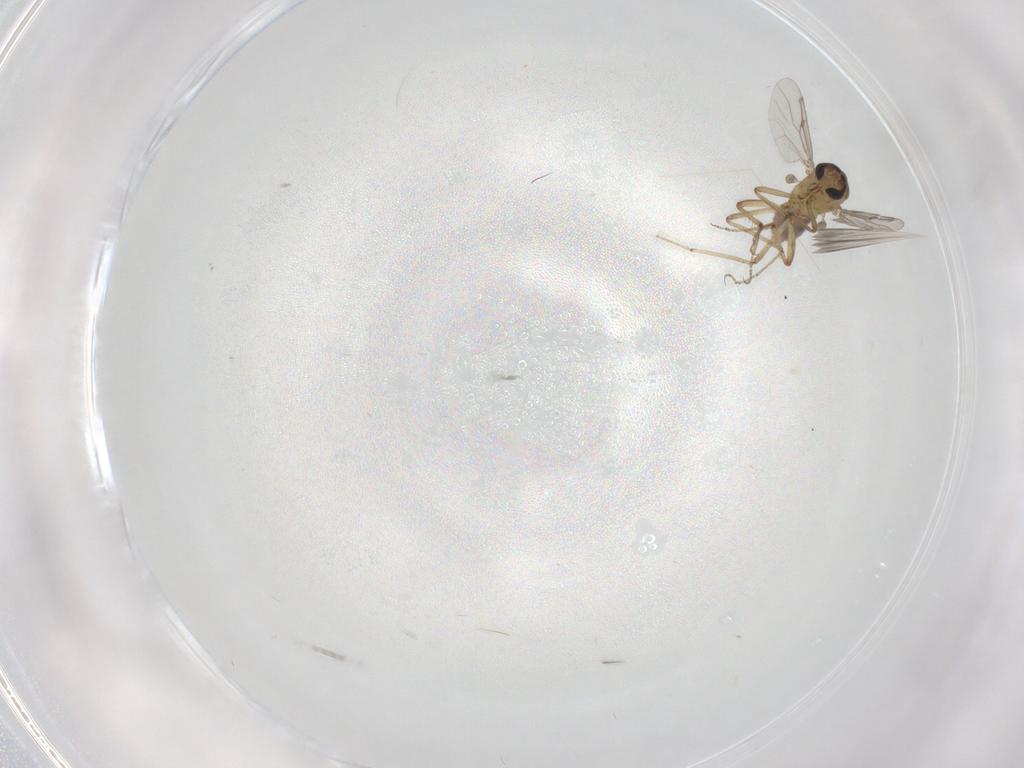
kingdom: Animalia
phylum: Arthropoda
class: Insecta
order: Diptera
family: Ceratopogonidae
